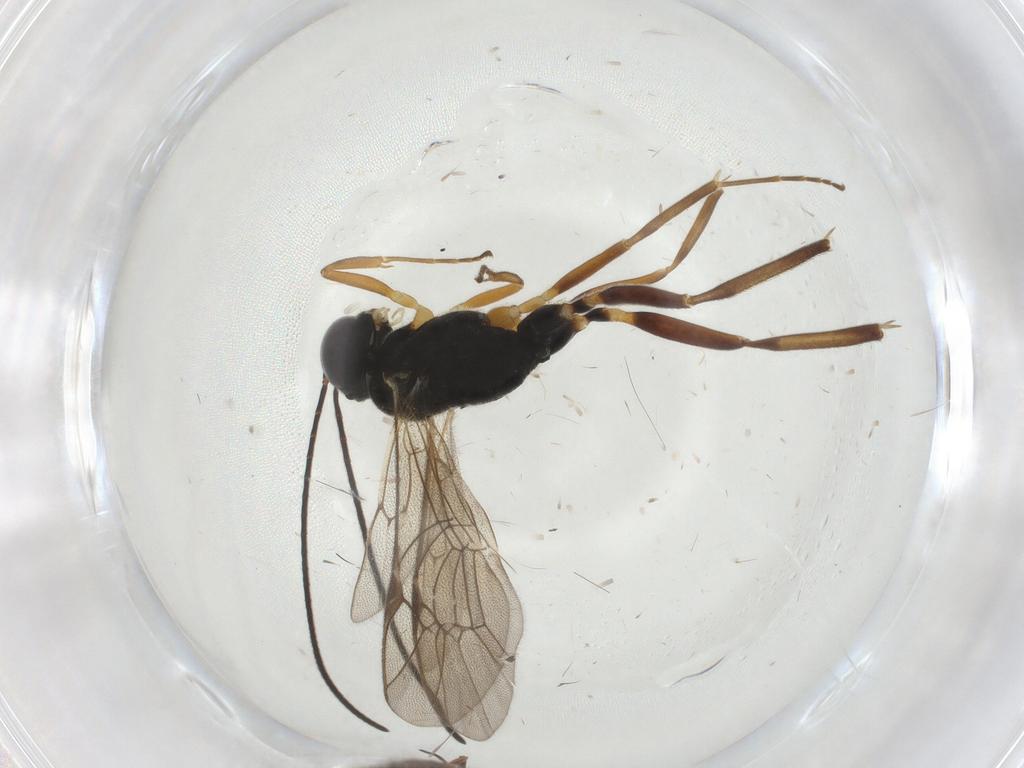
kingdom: Animalia
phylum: Arthropoda
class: Insecta
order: Hymenoptera
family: Ichneumonidae
